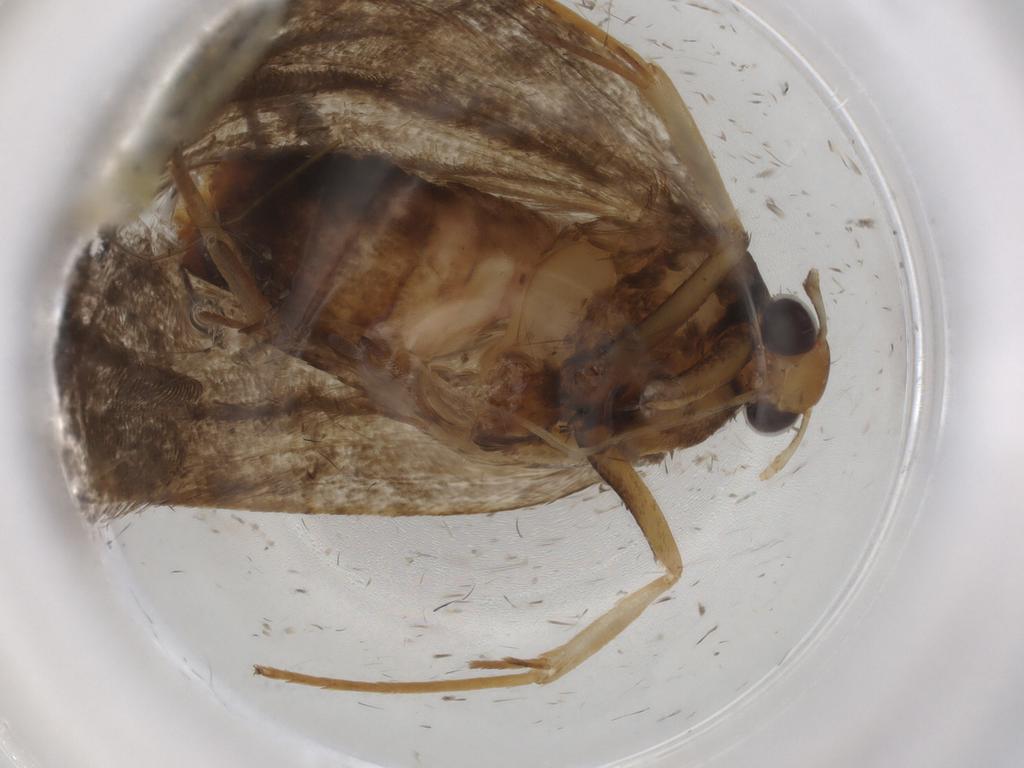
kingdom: Animalia
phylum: Arthropoda
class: Insecta
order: Lepidoptera
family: Lecithoceridae
